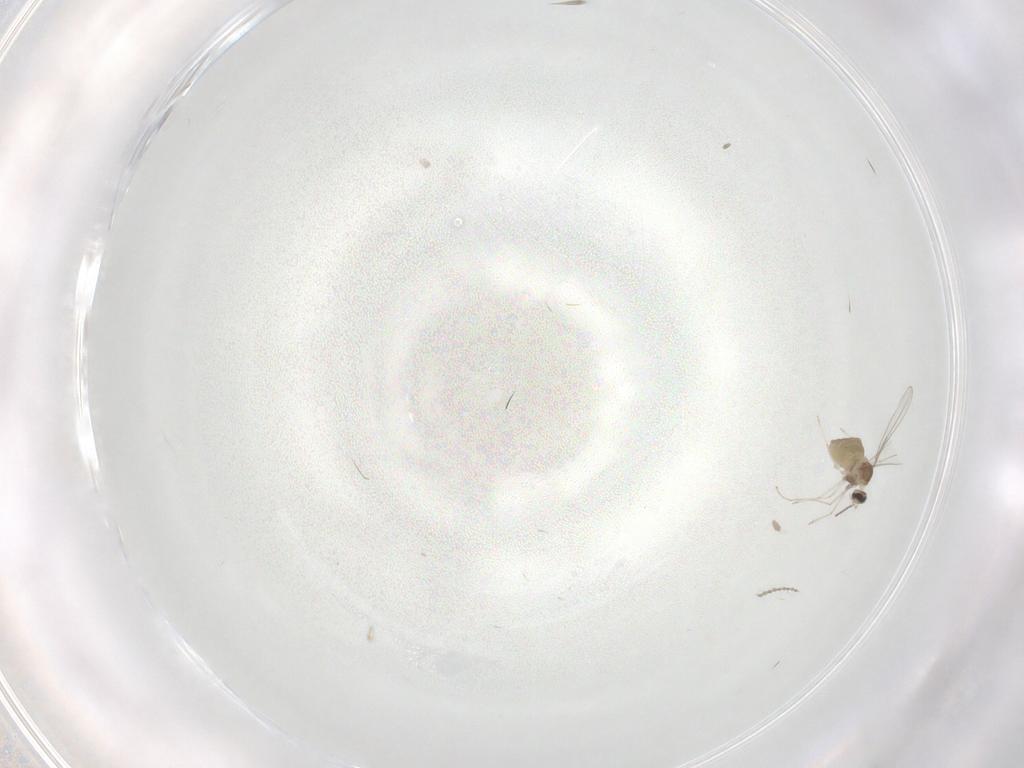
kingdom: Animalia
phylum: Arthropoda
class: Insecta
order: Diptera
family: Cecidomyiidae
